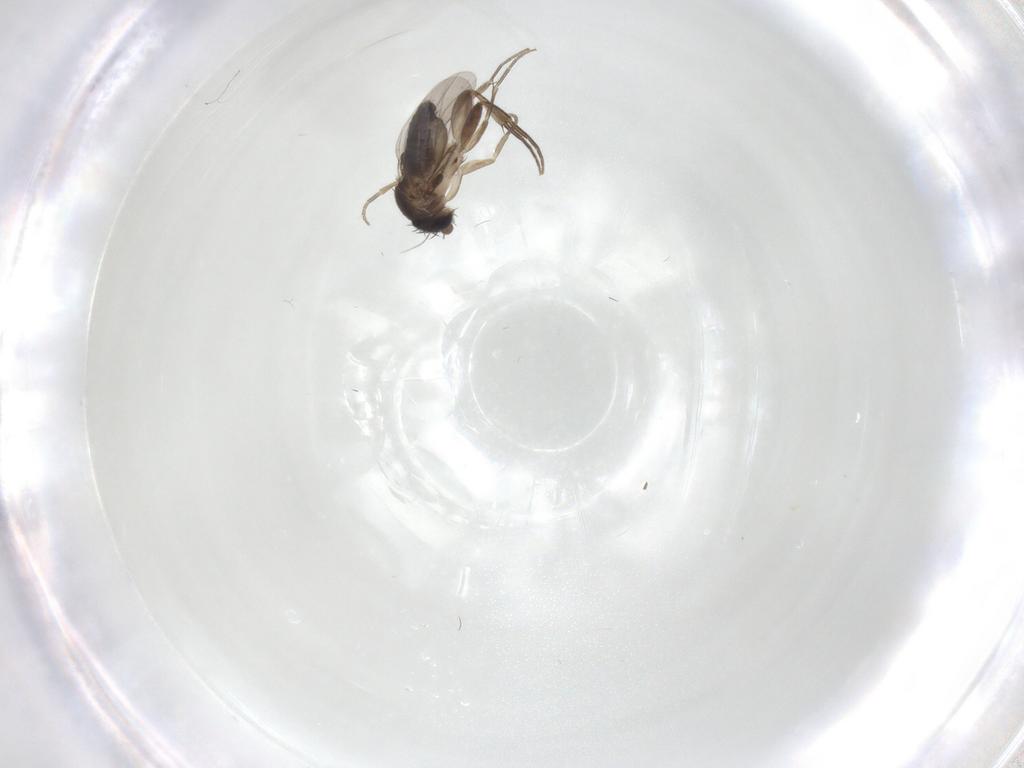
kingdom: Animalia
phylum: Arthropoda
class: Insecta
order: Diptera
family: Phoridae
